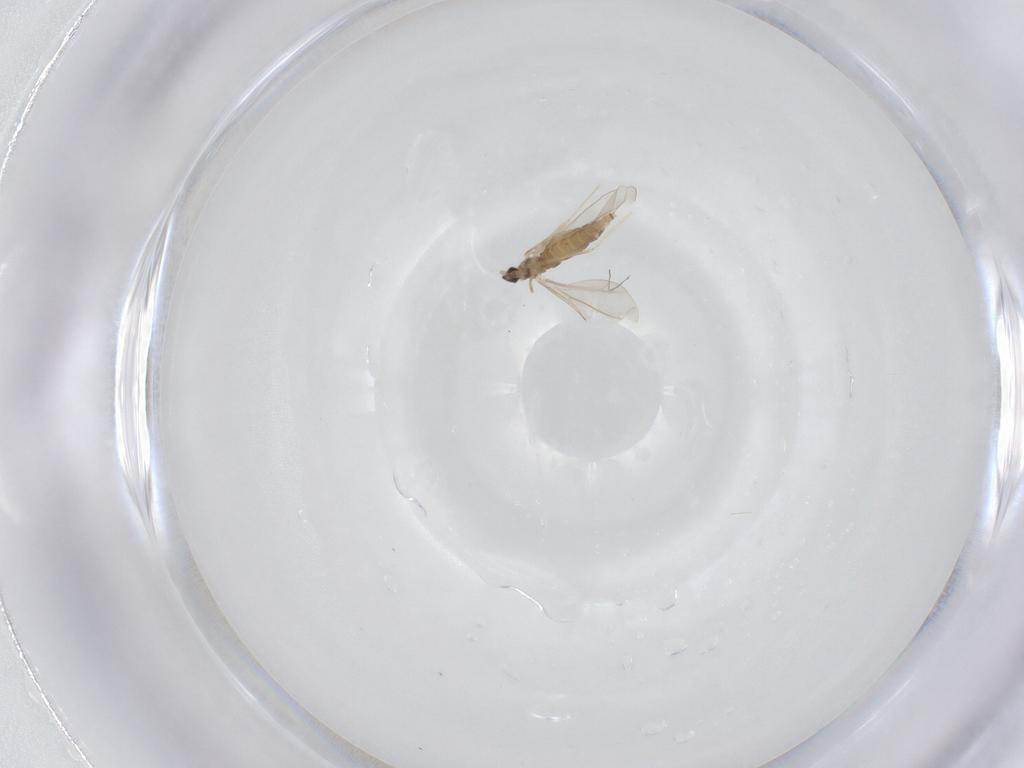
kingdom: Animalia
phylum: Arthropoda
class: Insecta
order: Diptera
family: Cecidomyiidae
